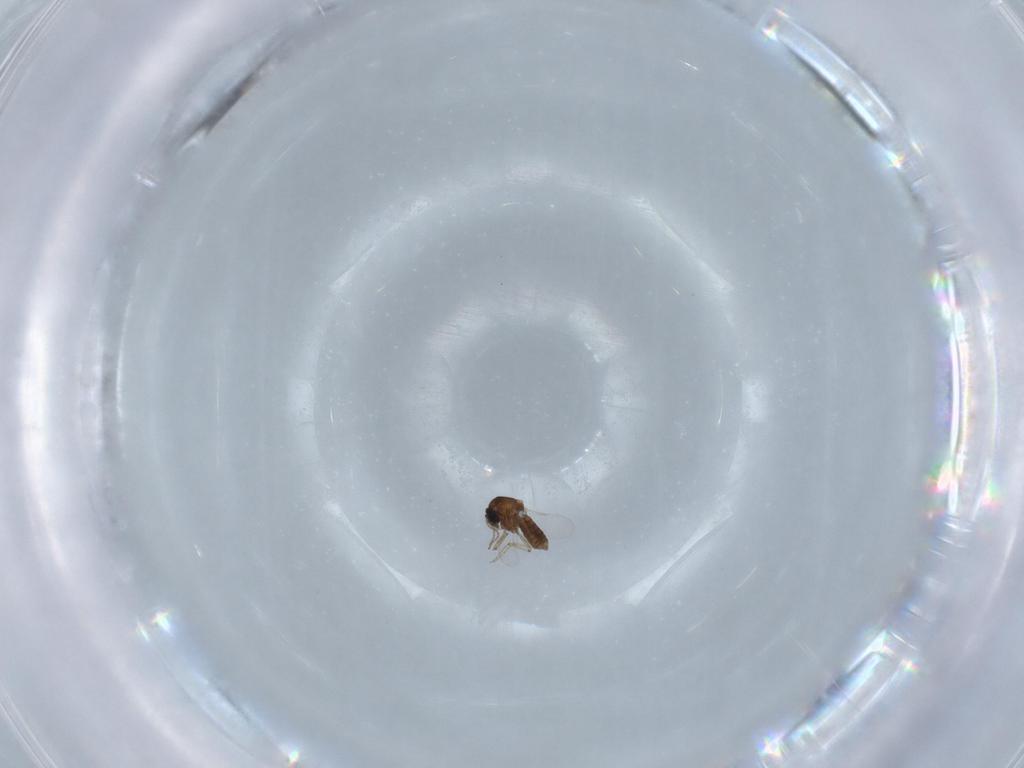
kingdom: Animalia
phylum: Arthropoda
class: Insecta
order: Diptera
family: Ceratopogonidae
